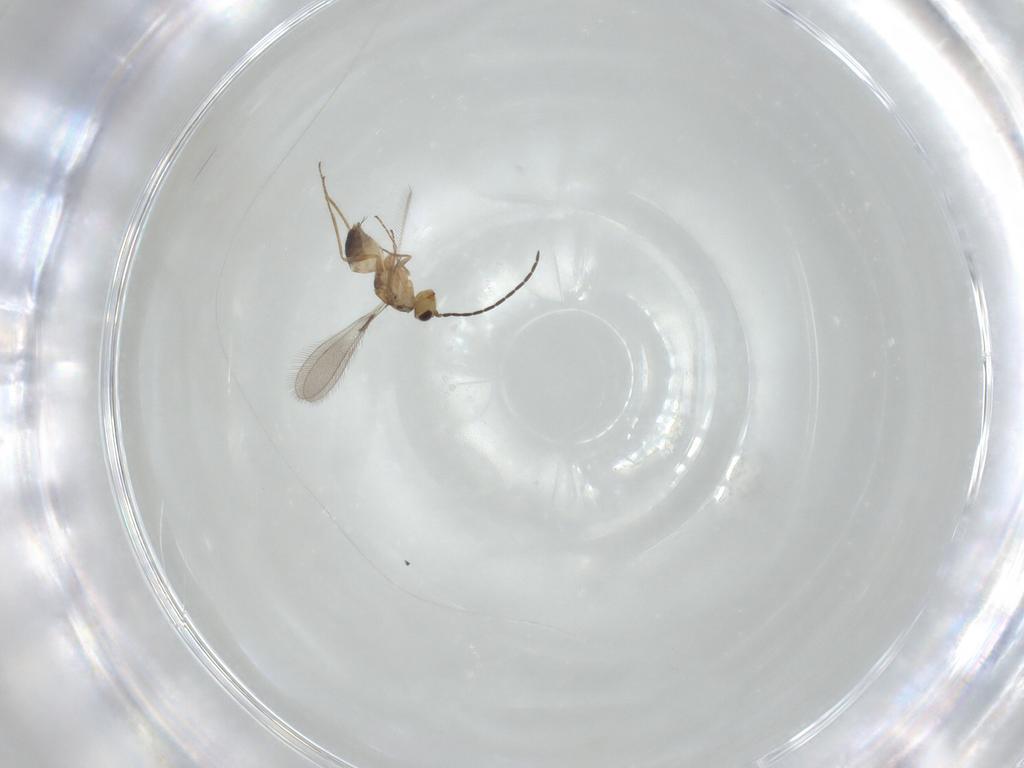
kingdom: Animalia
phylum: Arthropoda
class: Insecta
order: Hymenoptera
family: Mymaridae
